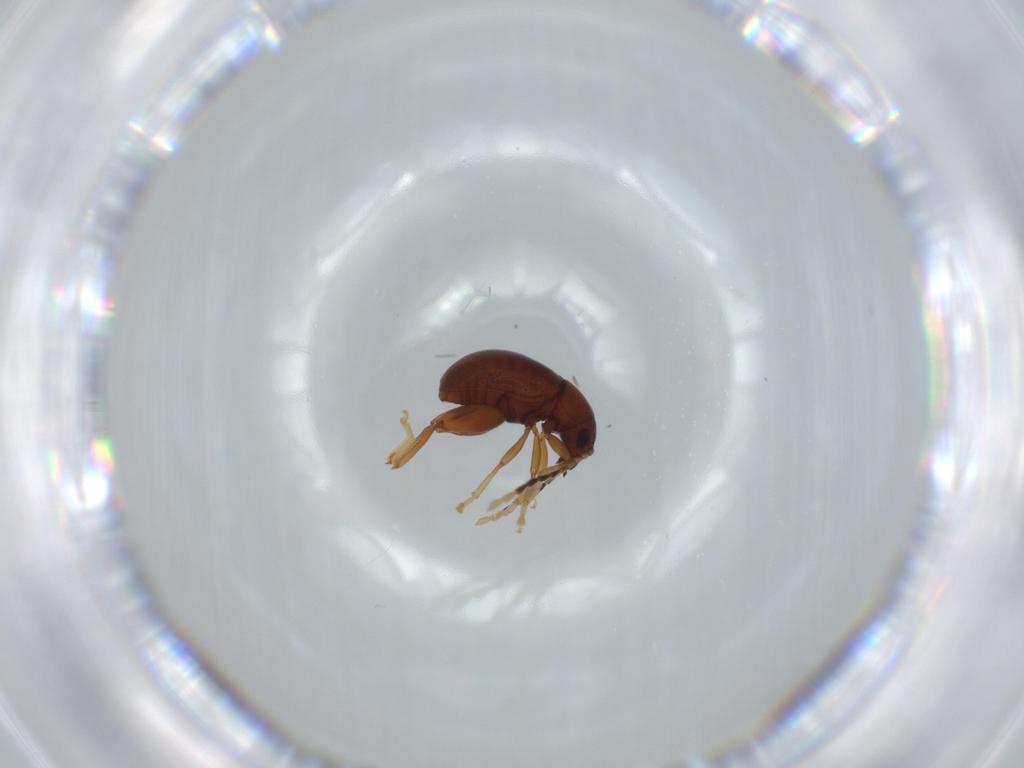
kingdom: Animalia
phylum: Arthropoda
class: Insecta
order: Coleoptera
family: Chrysomelidae
